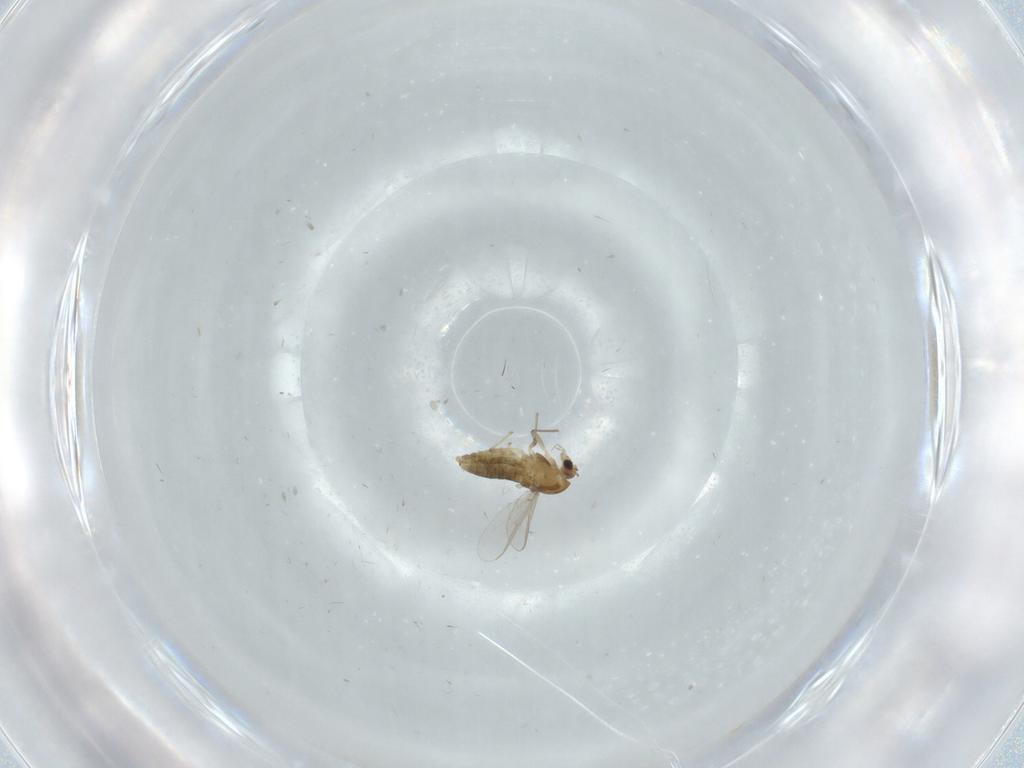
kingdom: Animalia
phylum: Arthropoda
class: Insecta
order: Diptera
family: Chironomidae
